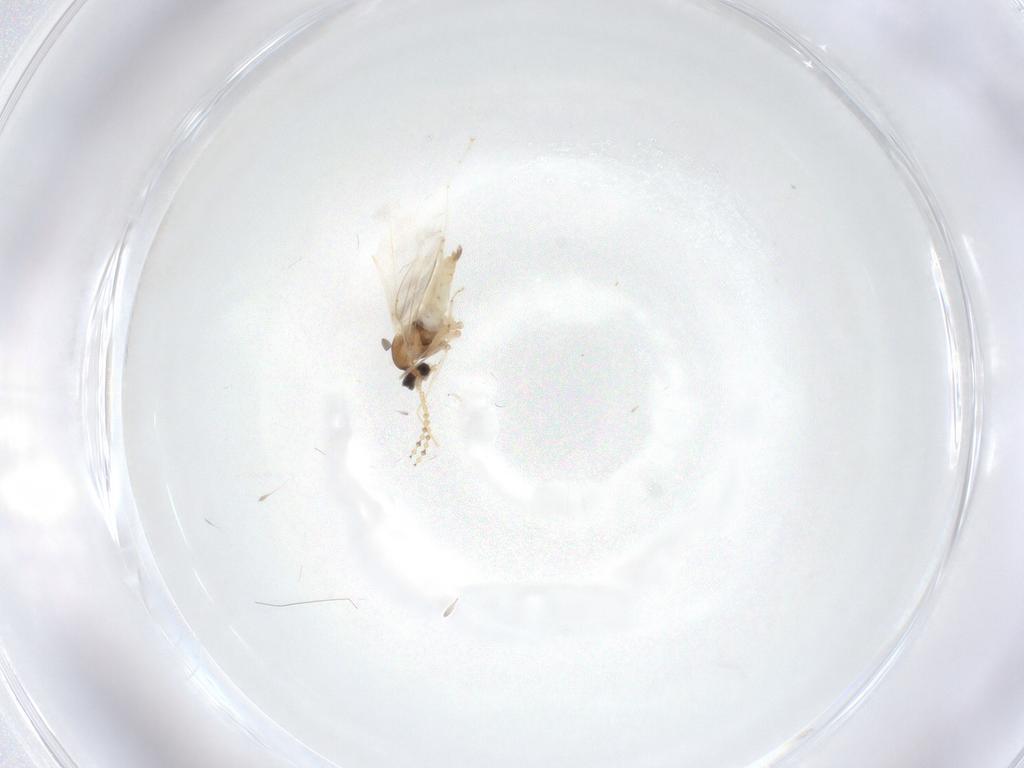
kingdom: Animalia
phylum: Arthropoda
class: Insecta
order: Diptera
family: Cecidomyiidae
